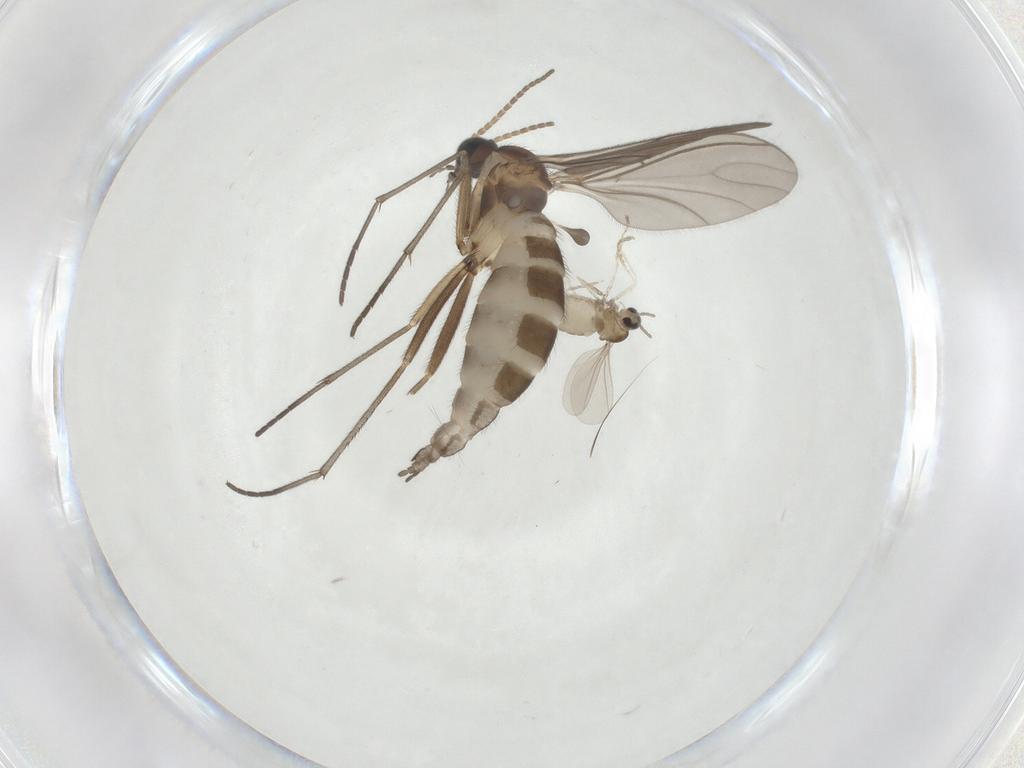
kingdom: Animalia
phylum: Arthropoda
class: Insecta
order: Diptera
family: Sciaridae
